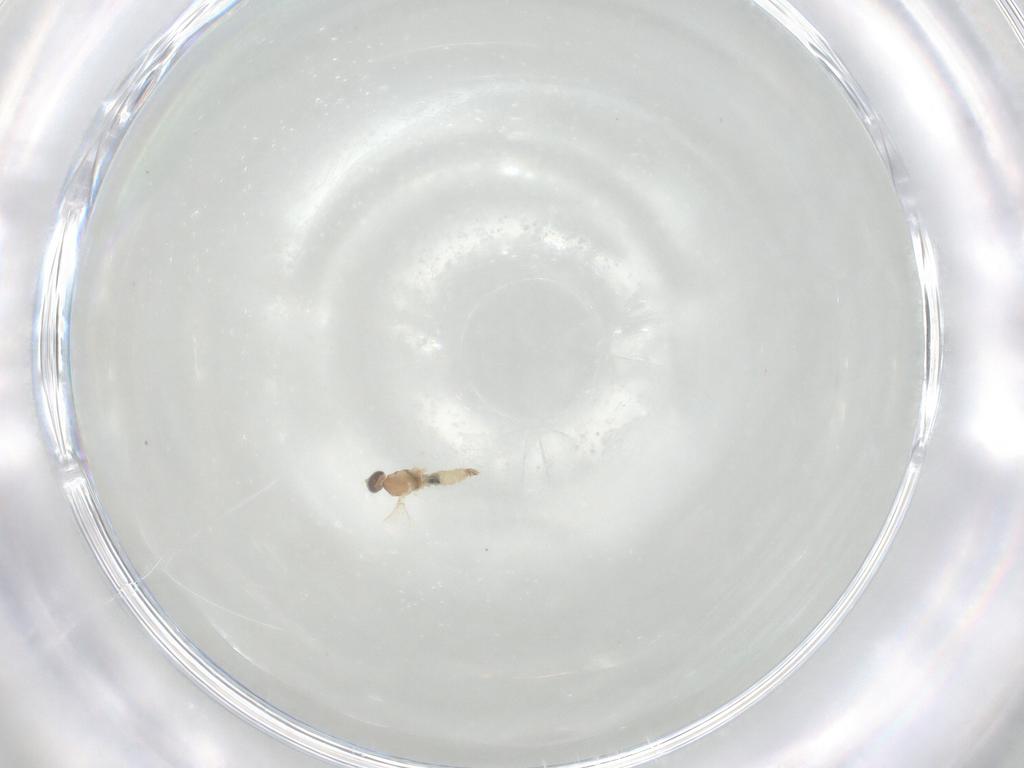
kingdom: Animalia
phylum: Arthropoda
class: Insecta
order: Diptera
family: Cecidomyiidae
